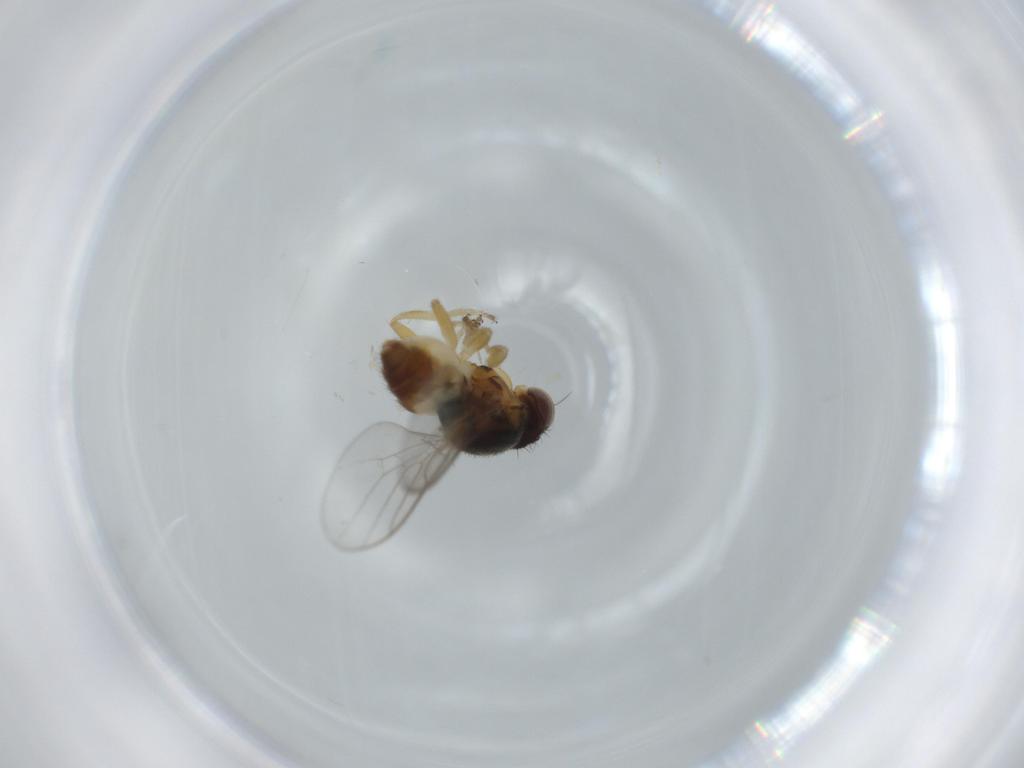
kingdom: Animalia
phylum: Arthropoda
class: Insecta
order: Diptera
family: Chloropidae
